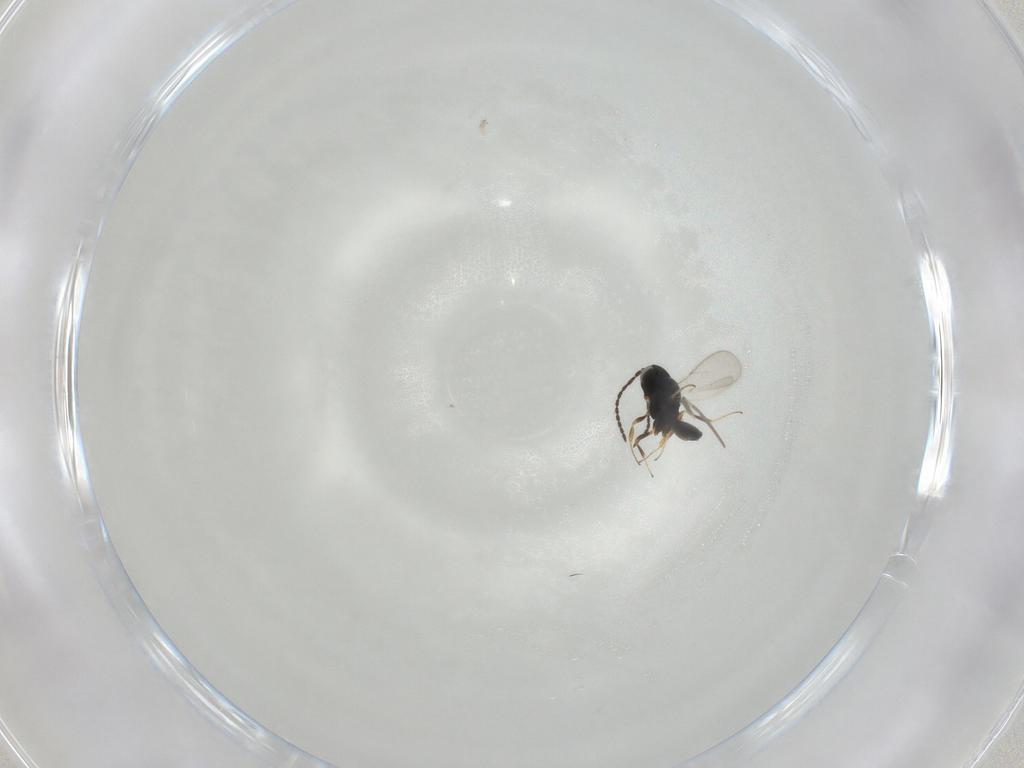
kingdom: Animalia
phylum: Arthropoda
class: Insecta
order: Hymenoptera
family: Scelionidae
